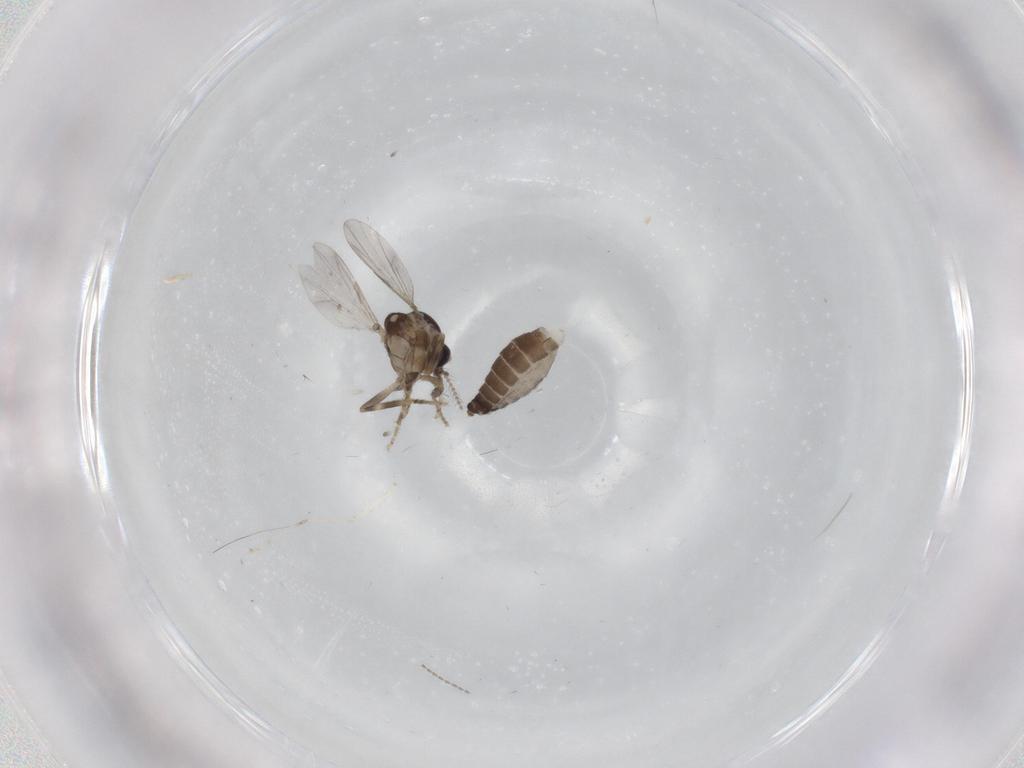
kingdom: Animalia
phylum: Arthropoda
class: Insecta
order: Diptera
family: Ceratopogonidae
